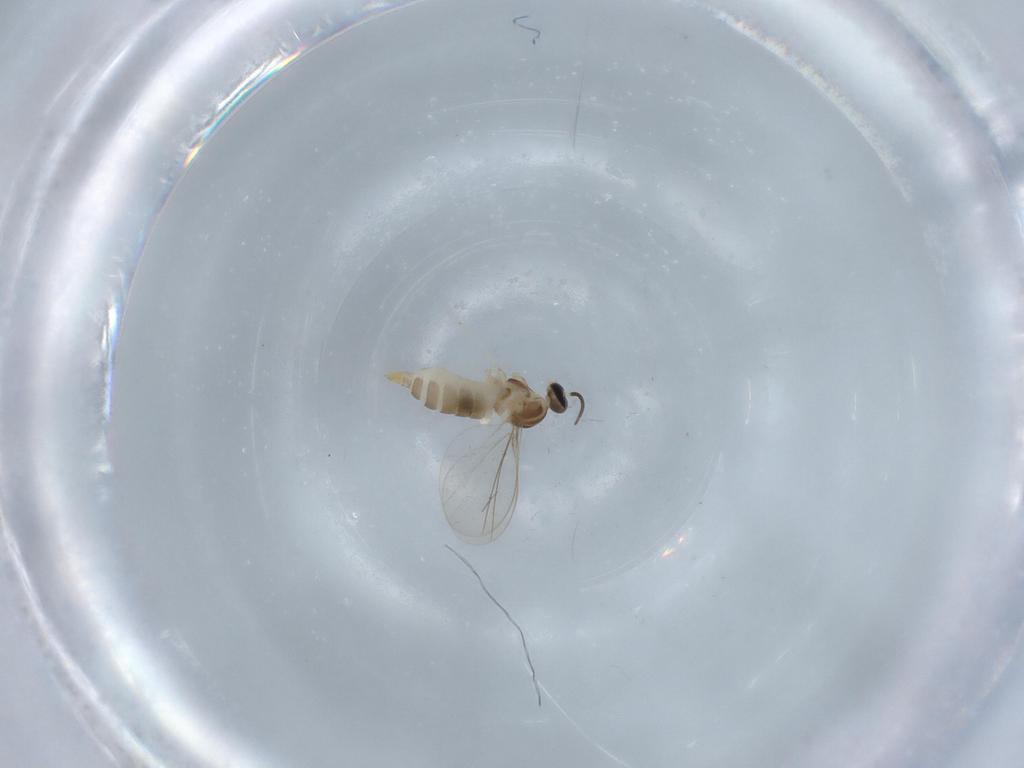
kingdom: Animalia
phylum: Arthropoda
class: Insecta
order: Diptera
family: Cecidomyiidae
